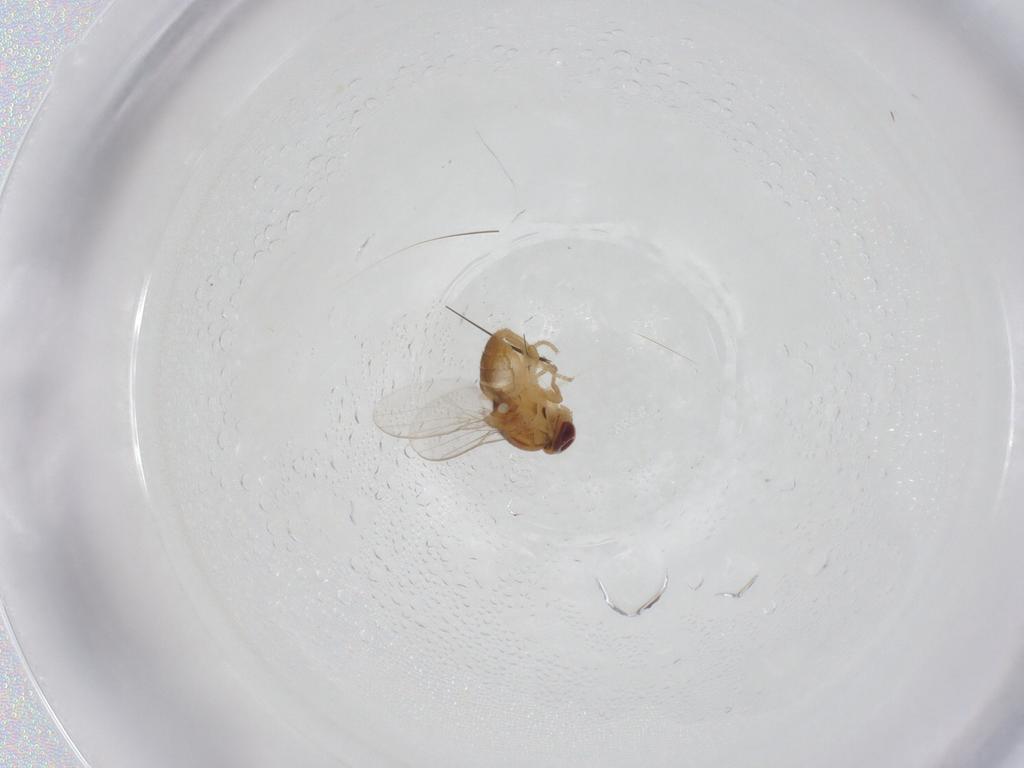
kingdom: Animalia
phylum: Arthropoda
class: Insecta
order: Diptera
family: Chloropidae
